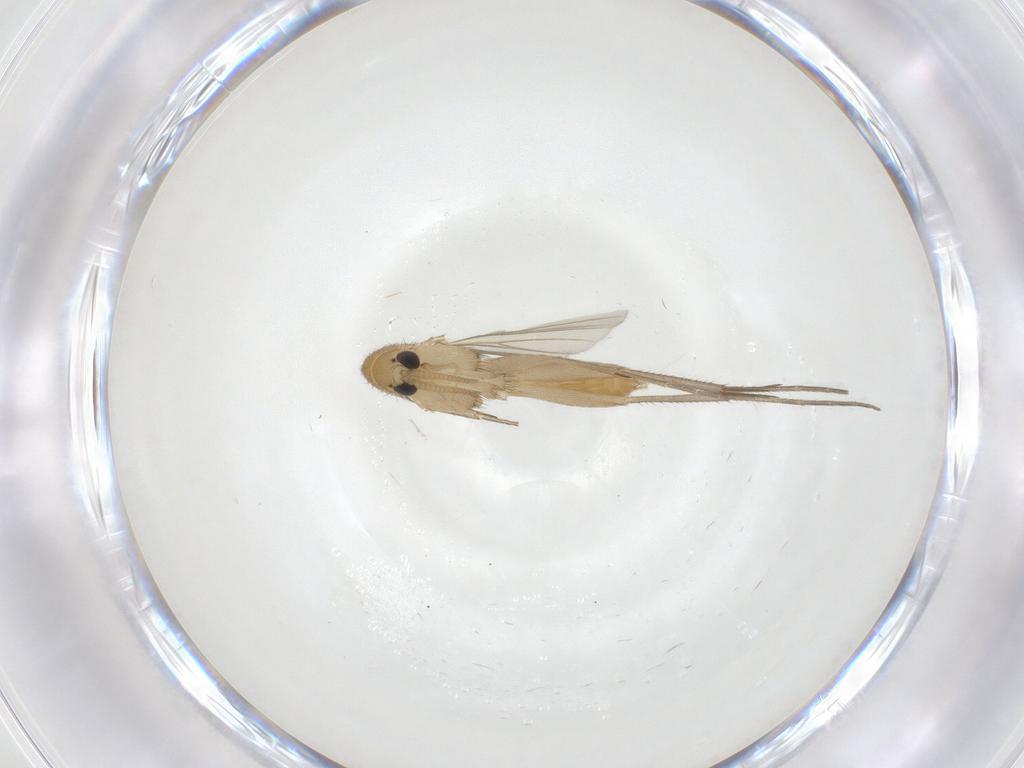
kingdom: Animalia
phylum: Arthropoda
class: Insecta
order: Diptera
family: Mycetophilidae
